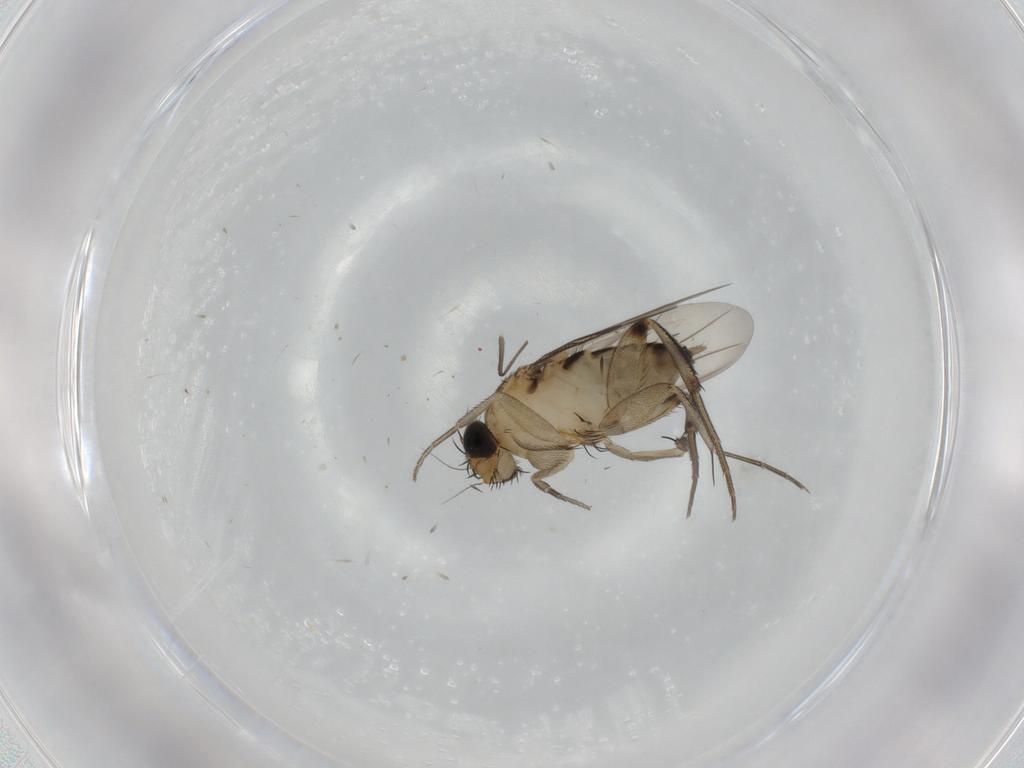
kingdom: Animalia
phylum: Arthropoda
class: Insecta
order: Diptera
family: Phoridae
